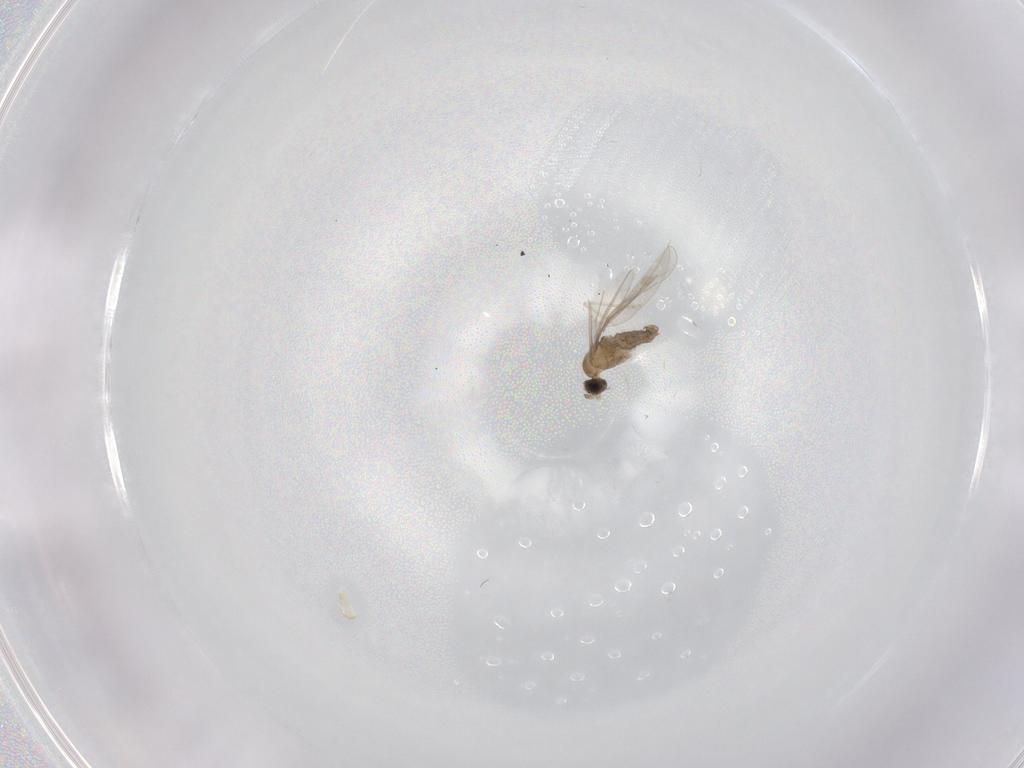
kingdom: Animalia
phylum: Arthropoda
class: Insecta
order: Diptera
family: Cecidomyiidae
